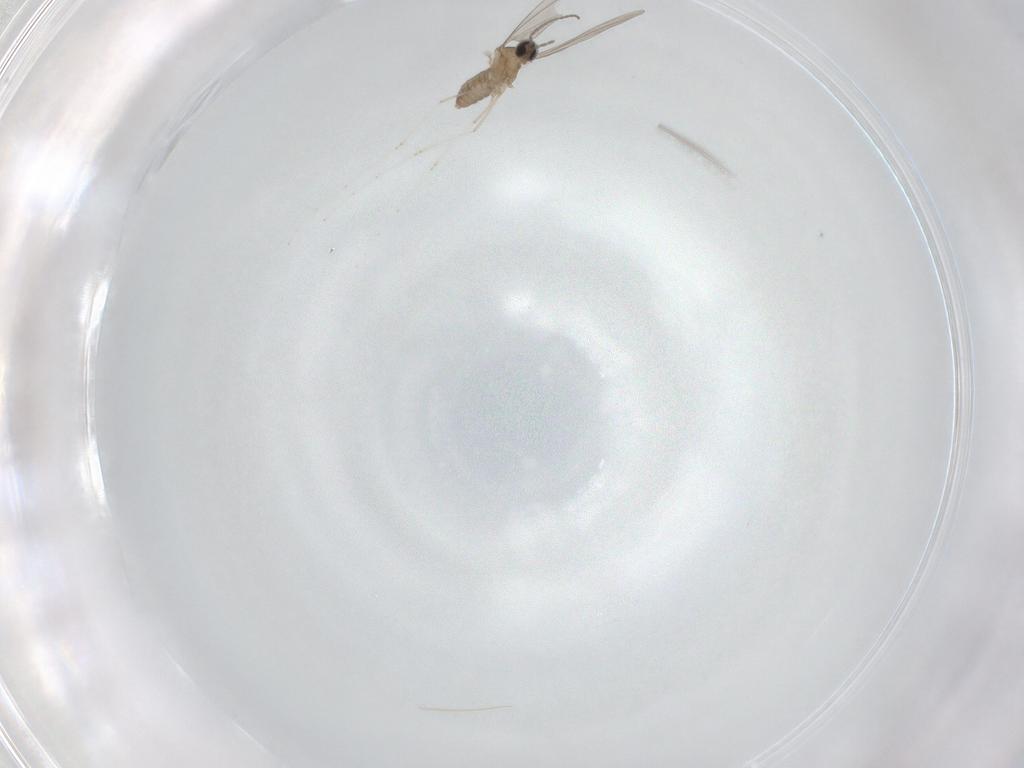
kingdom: Animalia
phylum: Arthropoda
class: Insecta
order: Diptera
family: Cecidomyiidae
